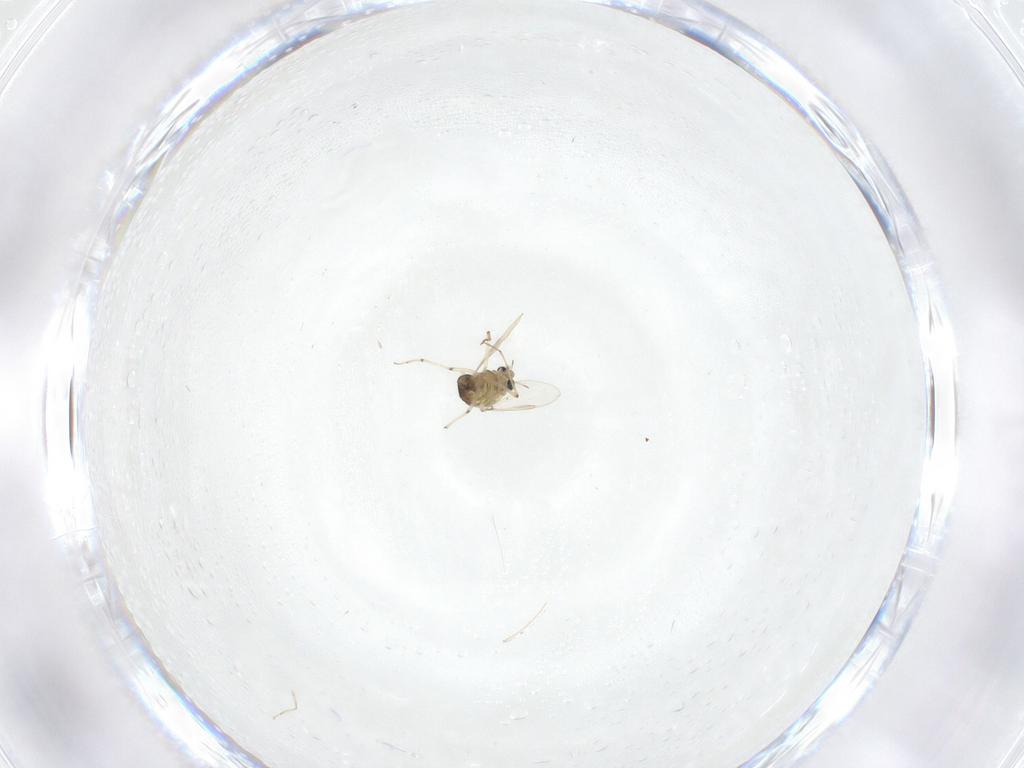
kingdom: Animalia
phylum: Arthropoda
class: Insecta
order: Diptera
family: Chironomidae
